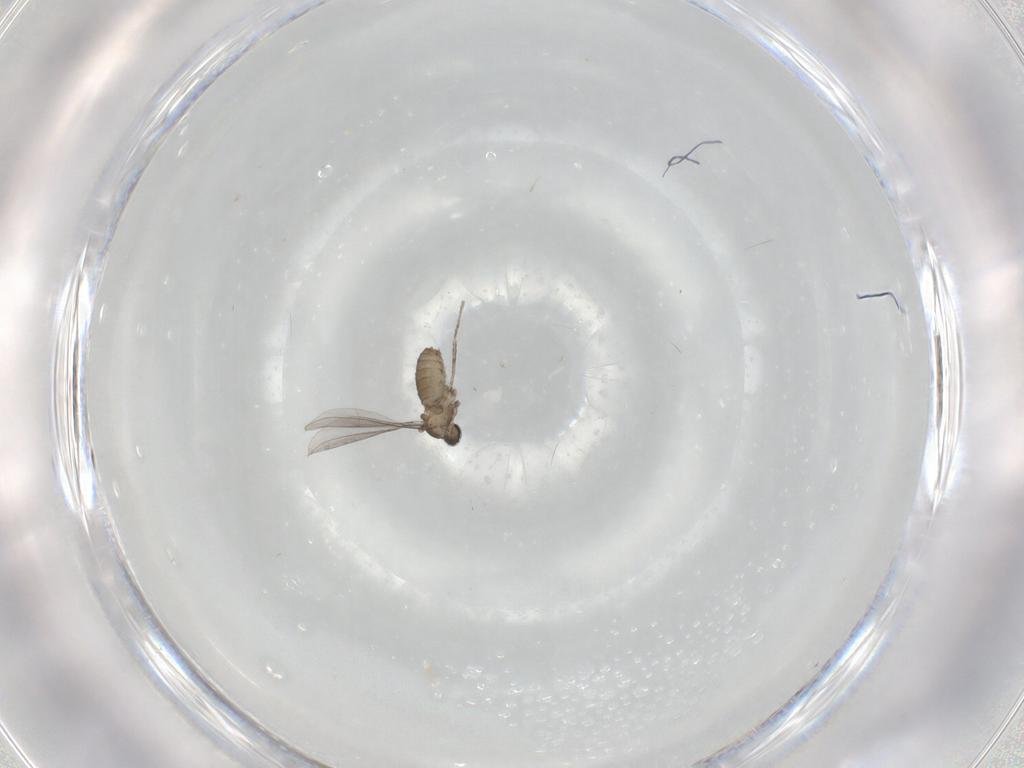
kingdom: Animalia
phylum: Arthropoda
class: Insecta
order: Diptera
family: Cecidomyiidae
